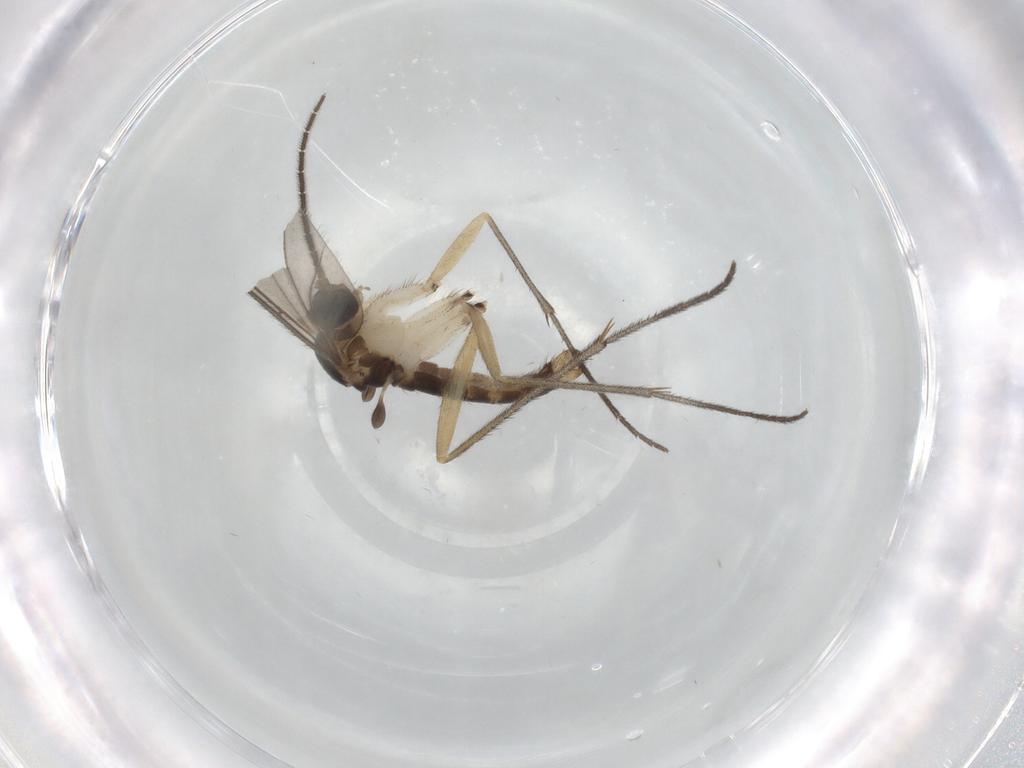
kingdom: Animalia
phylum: Arthropoda
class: Insecta
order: Diptera
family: Sciaridae
